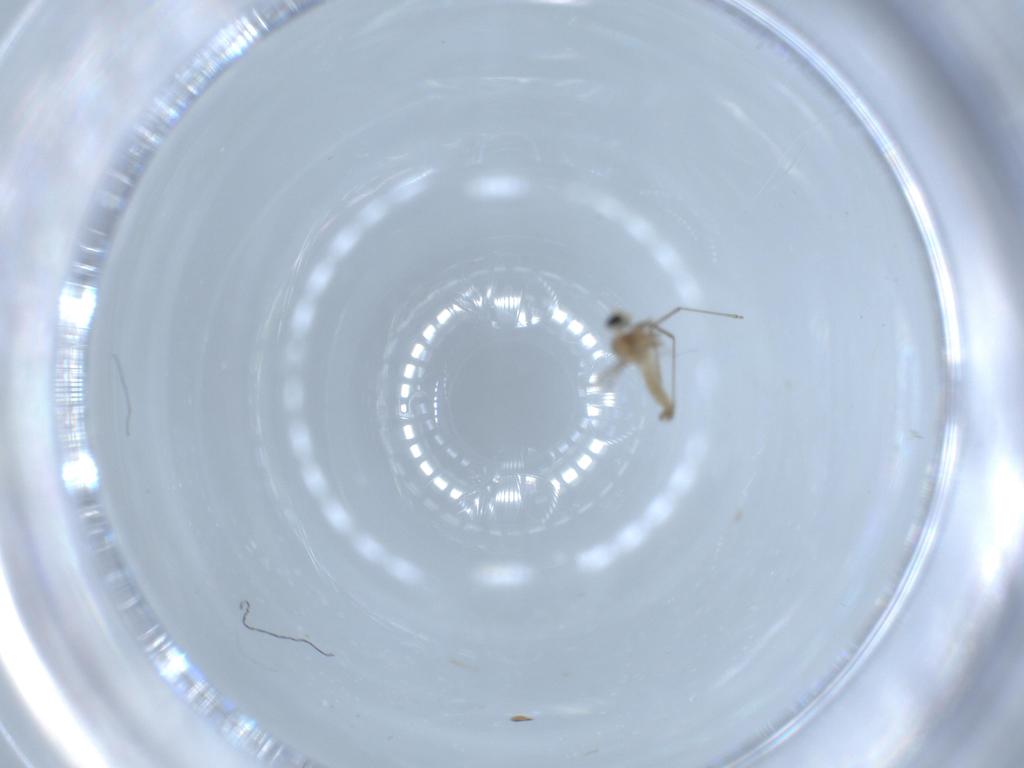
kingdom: Animalia
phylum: Arthropoda
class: Insecta
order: Diptera
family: Cecidomyiidae
